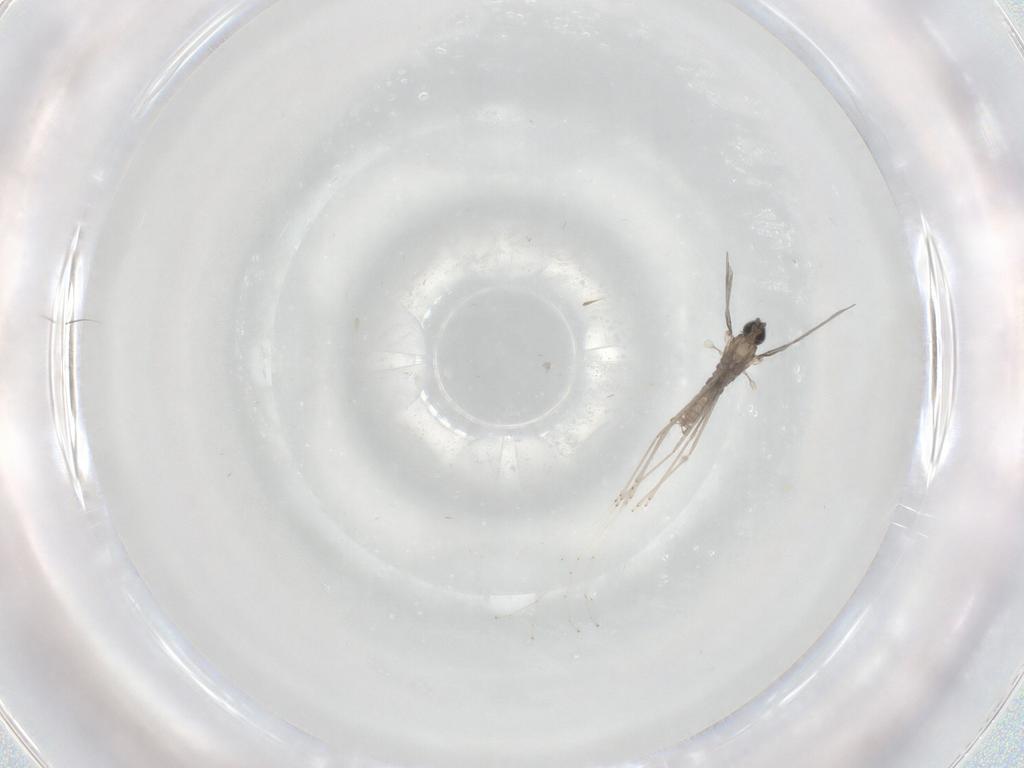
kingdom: Animalia
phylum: Arthropoda
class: Insecta
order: Diptera
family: Cecidomyiidae
